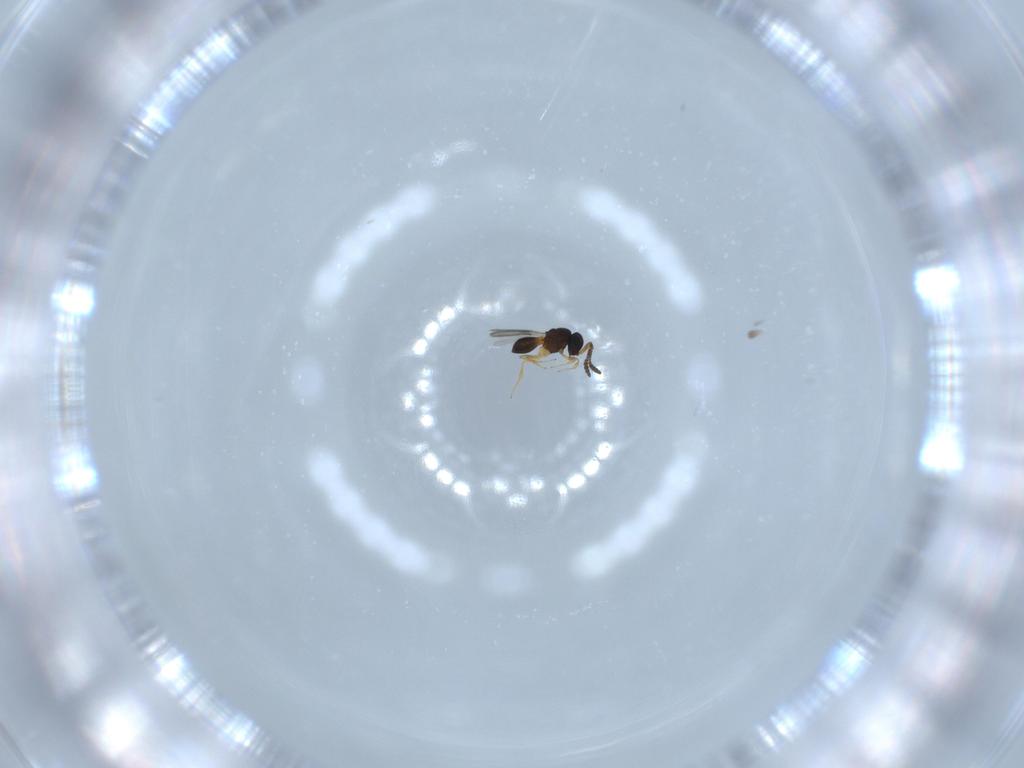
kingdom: Animalia
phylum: Arthropoda
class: Insecta
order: Hymenoptera
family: Scelionidae
